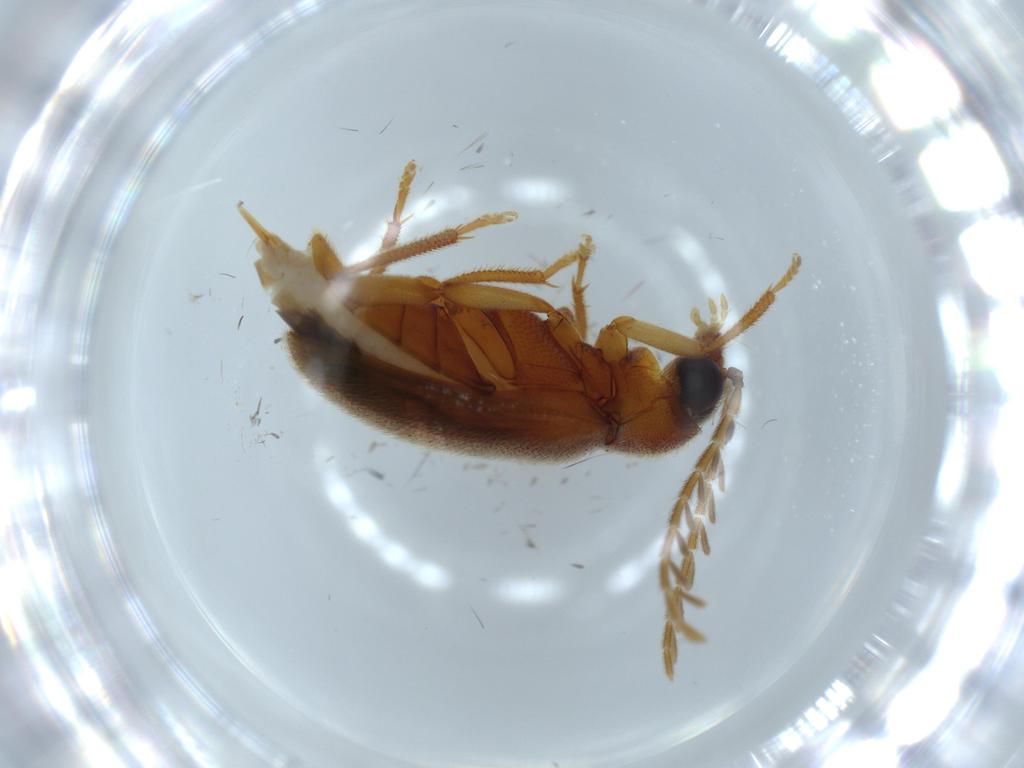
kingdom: Animalia
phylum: Arthropoda
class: Insecta
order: Coleoptera
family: Ptilodactylidae
